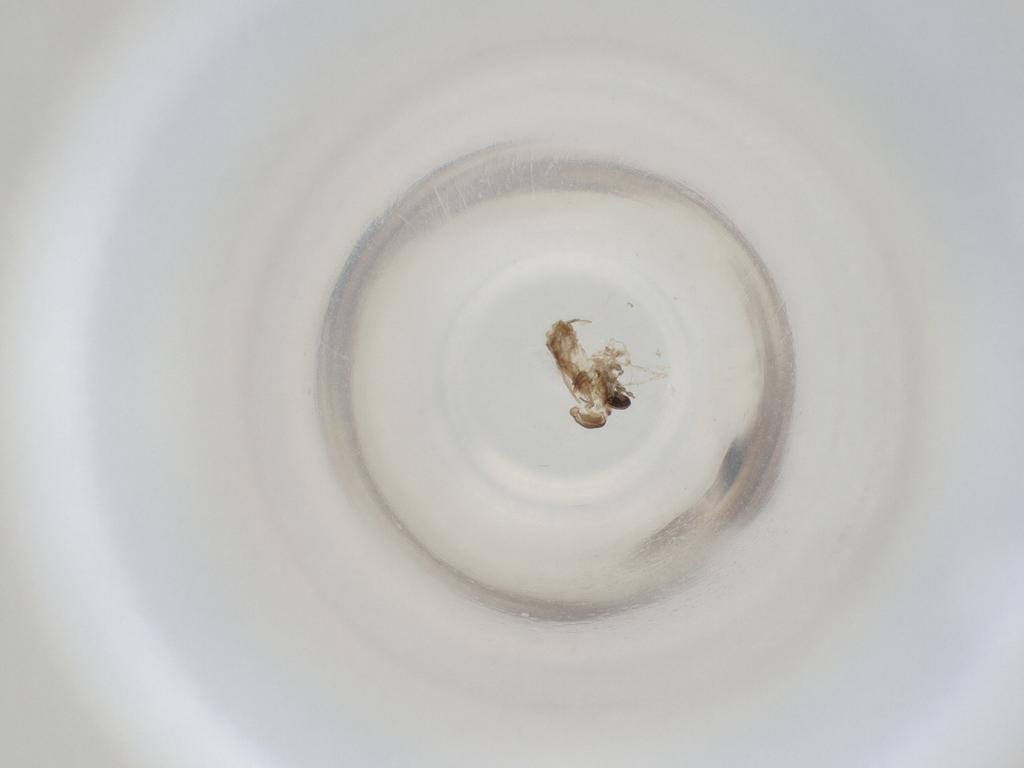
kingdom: Animalia
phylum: Arthropoda
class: Insecta
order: Diptera
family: Cecidomyiidae
